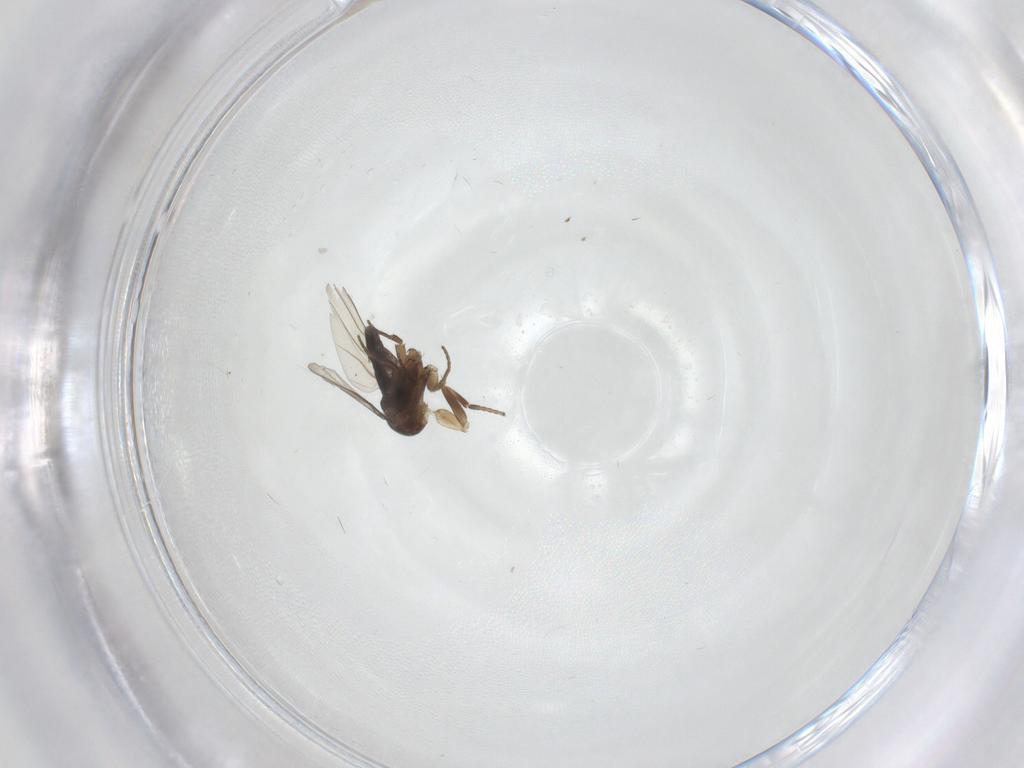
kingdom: Animalia
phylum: Arthropoda
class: Insecta
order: Diptera
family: Phoridae
